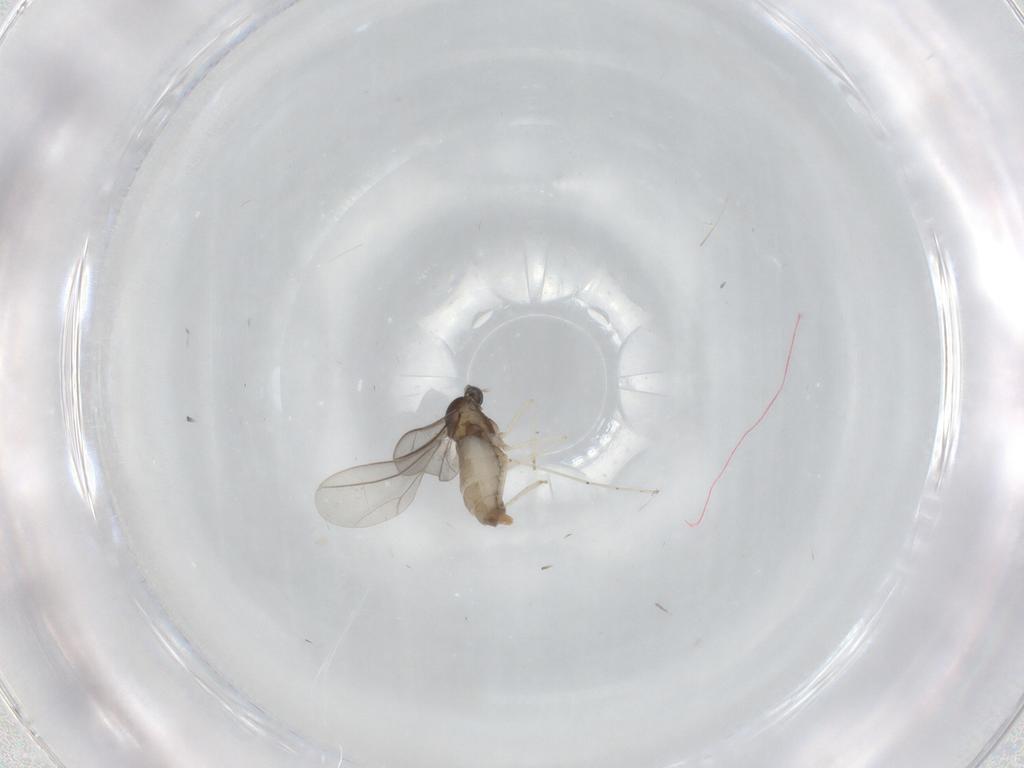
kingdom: Animalia
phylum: Arthropoda
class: Insecta
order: Diptera
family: Cecidomyiidae
